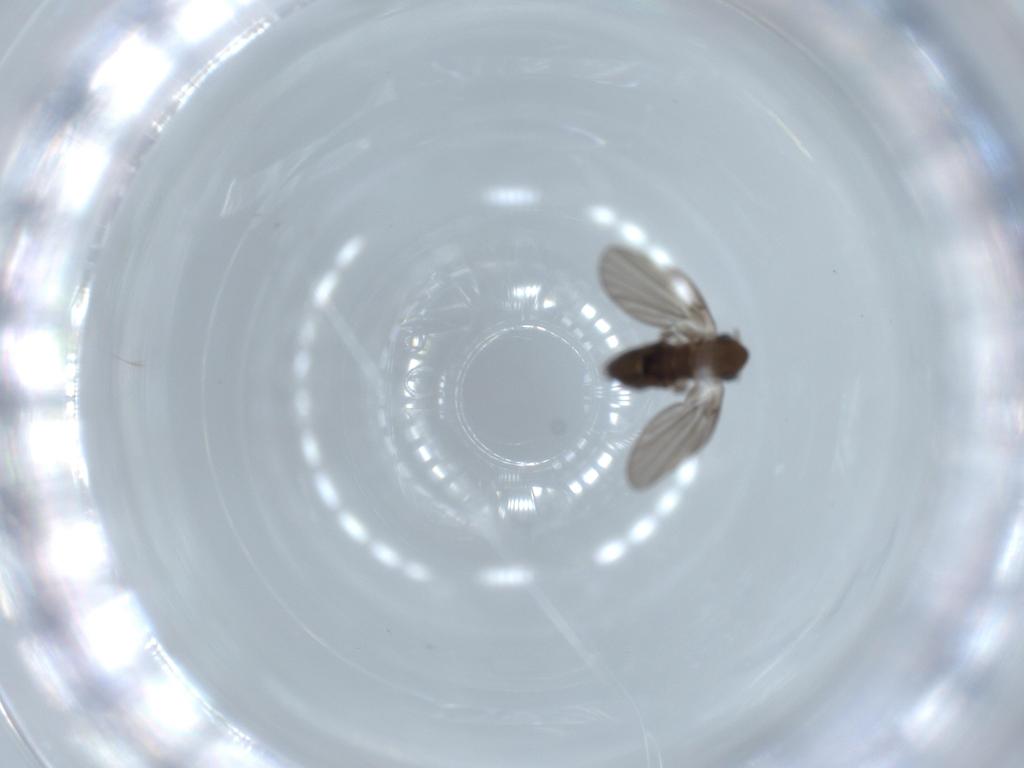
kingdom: Animalia
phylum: Arthropoda
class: Insecta
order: Diptera
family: Psychodidae
